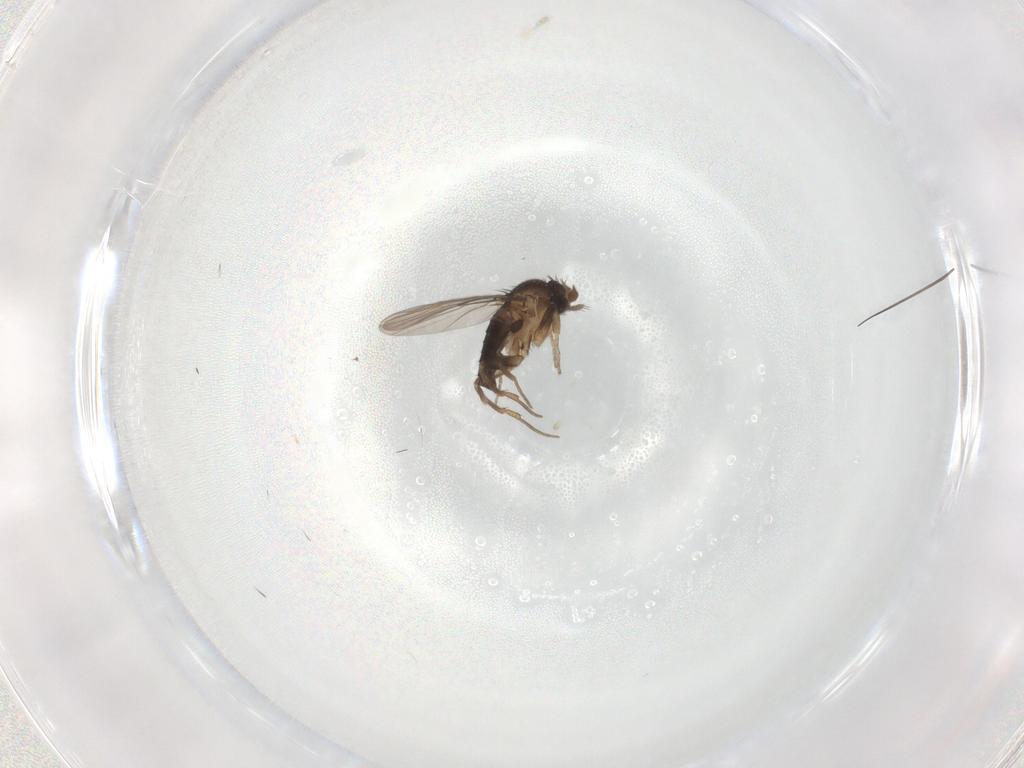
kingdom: Animalia
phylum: Arthropoda
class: Insecta
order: Diptera
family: Phoridae
